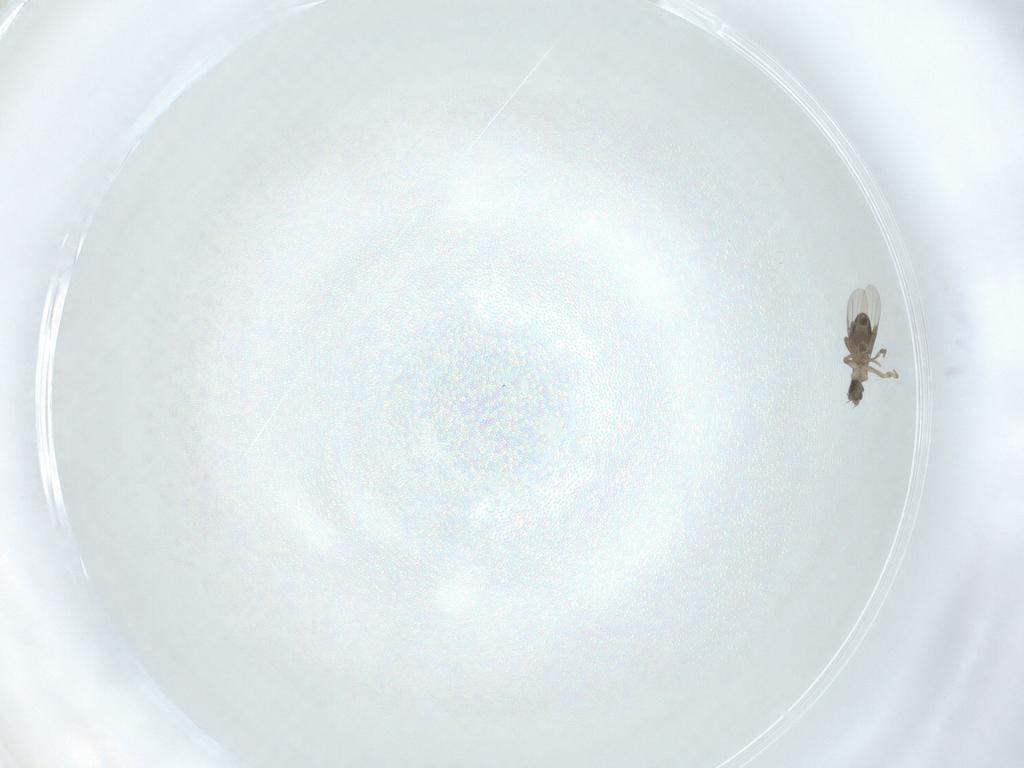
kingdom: Animalia
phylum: Arthropoda
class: Insecta
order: Diptera
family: Phoridae
